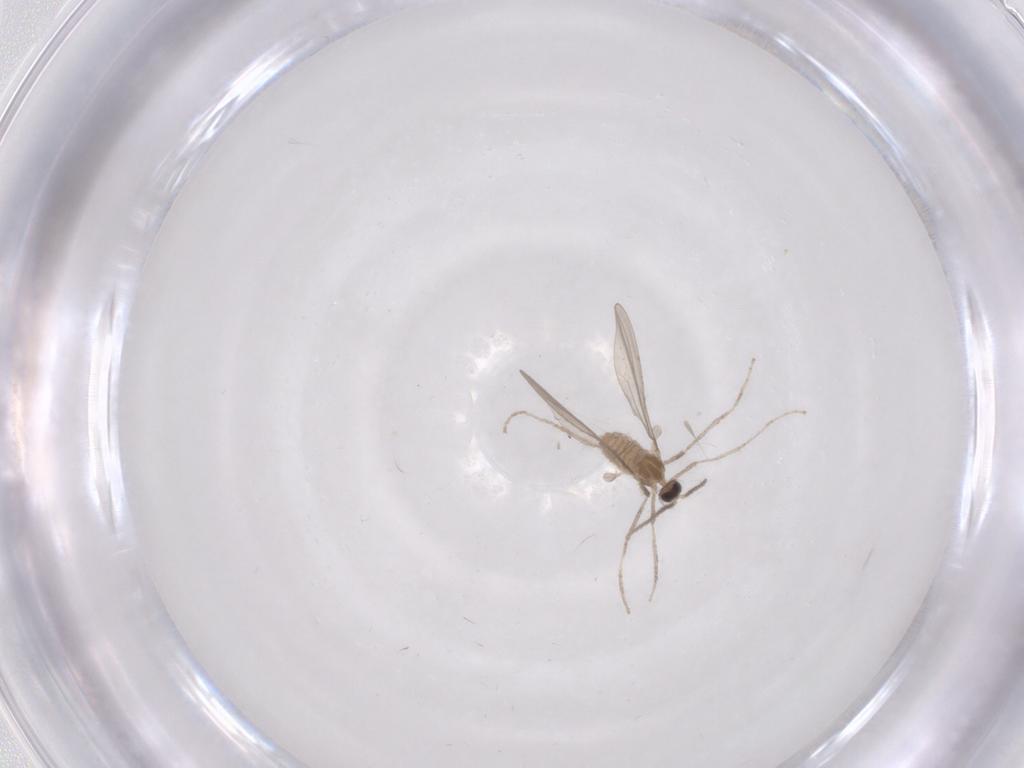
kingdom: Animalia
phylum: Arthropoda
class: Insecta
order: Diptera
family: Cecidomyiidae
